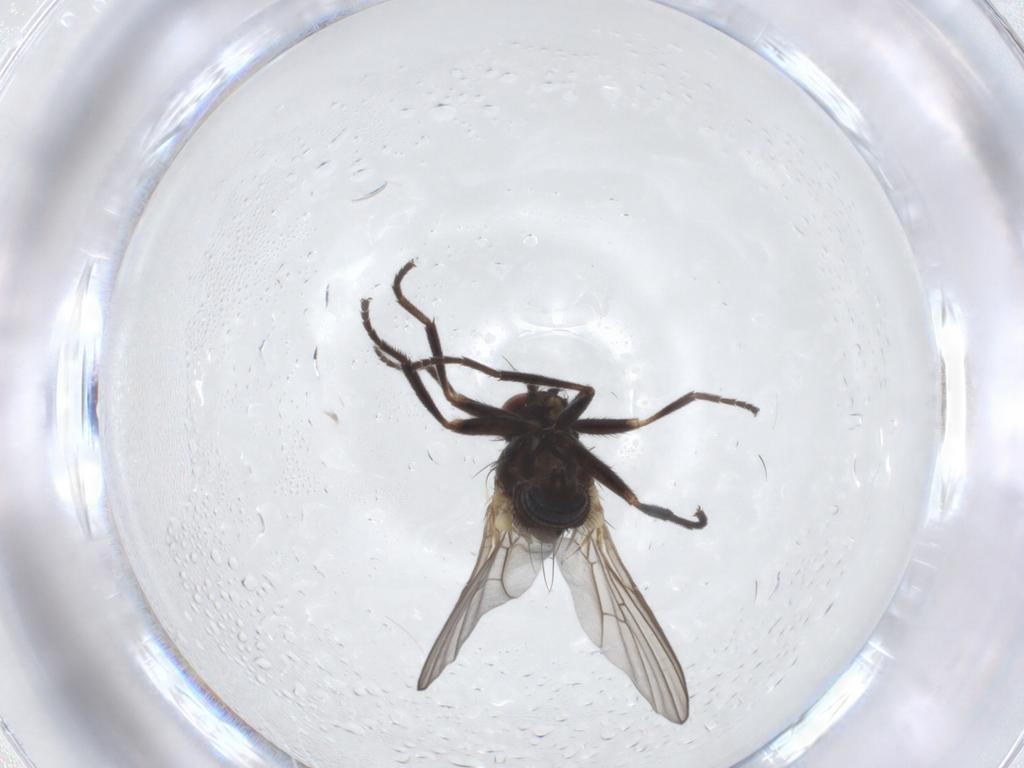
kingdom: Animalia
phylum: Arthropoda
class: Insecta
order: Diptera
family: Agromyzidae
